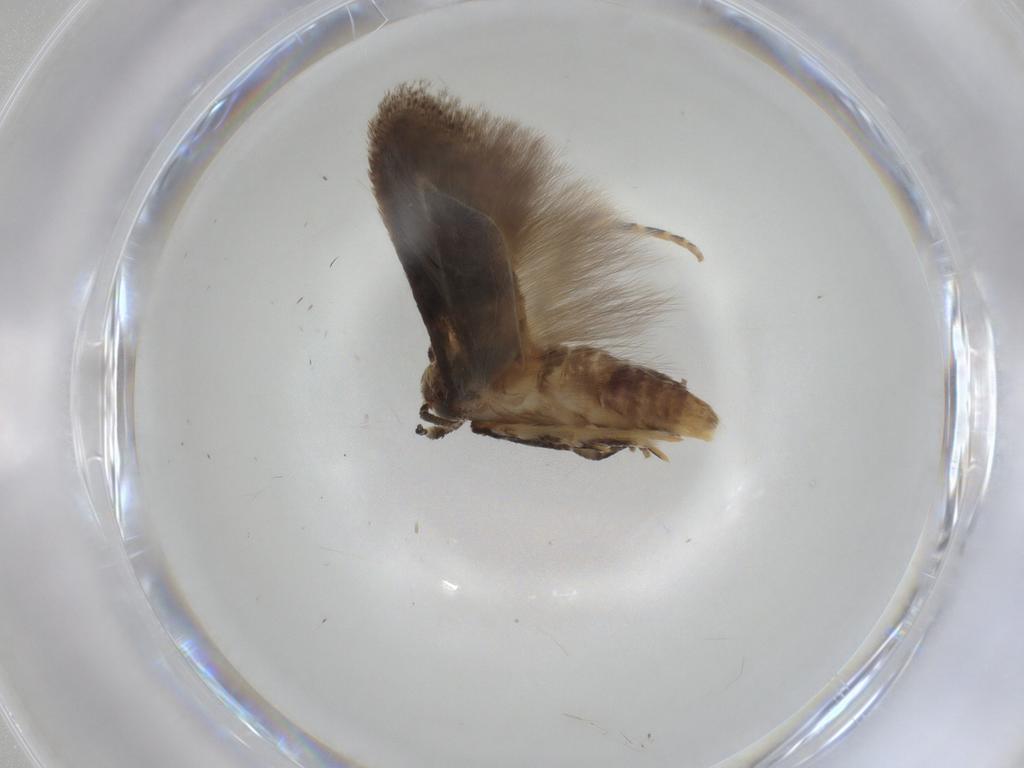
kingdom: Animalia
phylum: Arthropoda
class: Insecta
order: Lepidoptera
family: Gelechiidae
